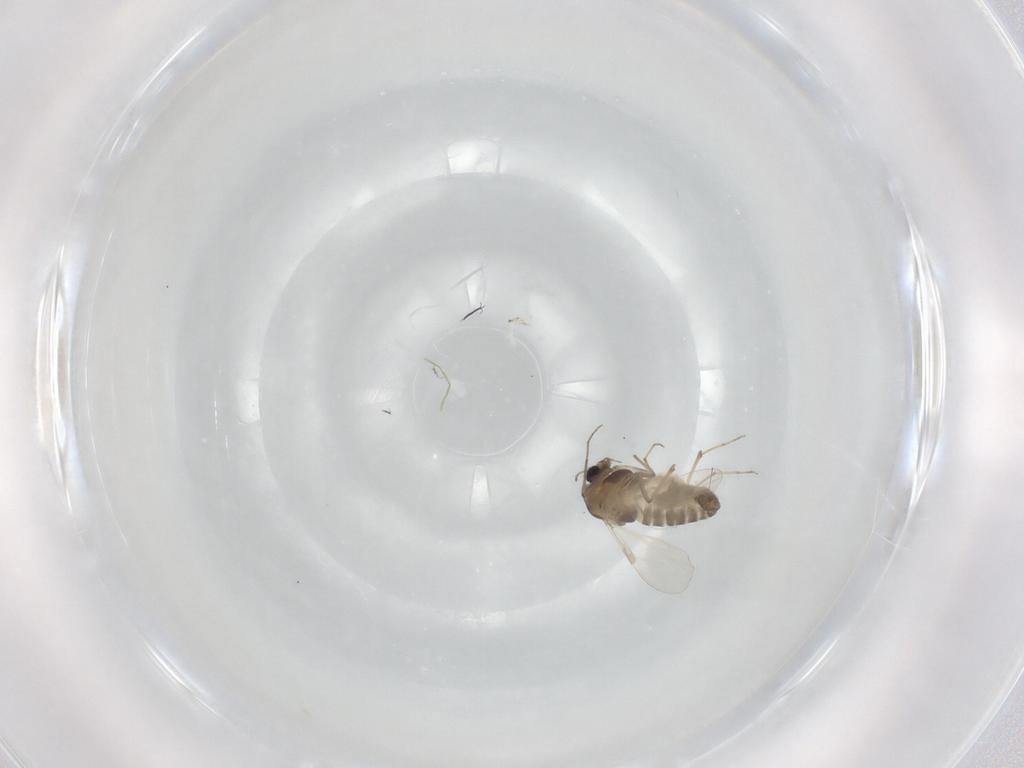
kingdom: Animalia
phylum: Arthropoda
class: Insecta
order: Diptera
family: Chironomidae
